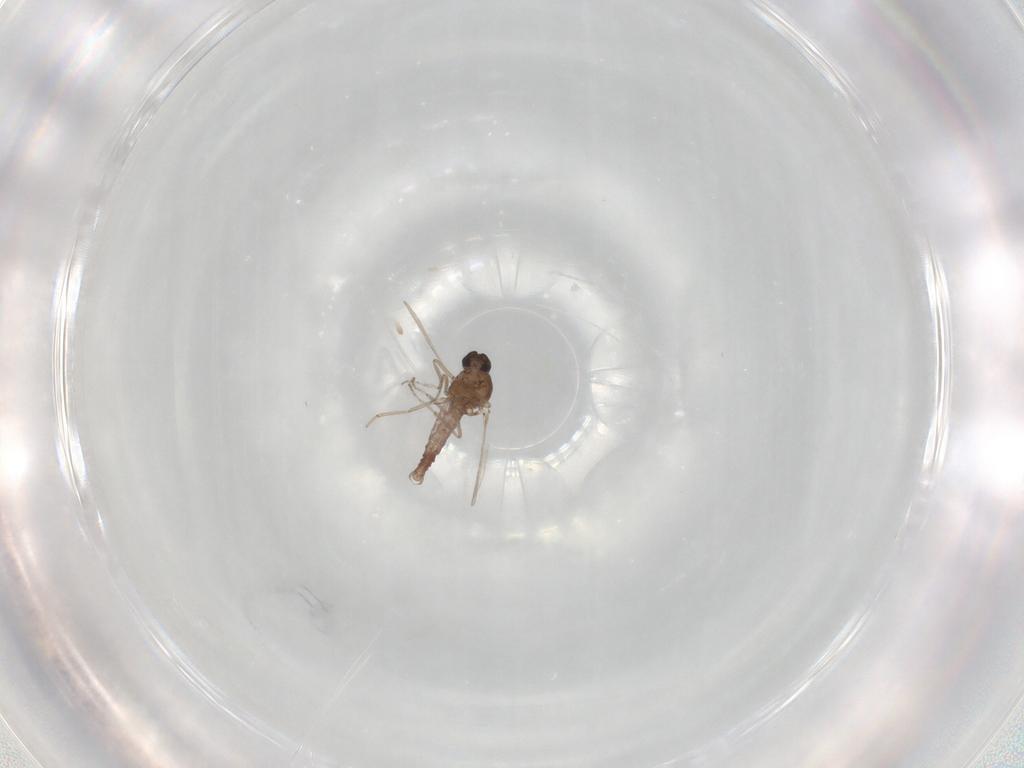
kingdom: Animalia
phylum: Arthropoda
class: Insecta
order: Diptera
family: Ceratopogonidae
